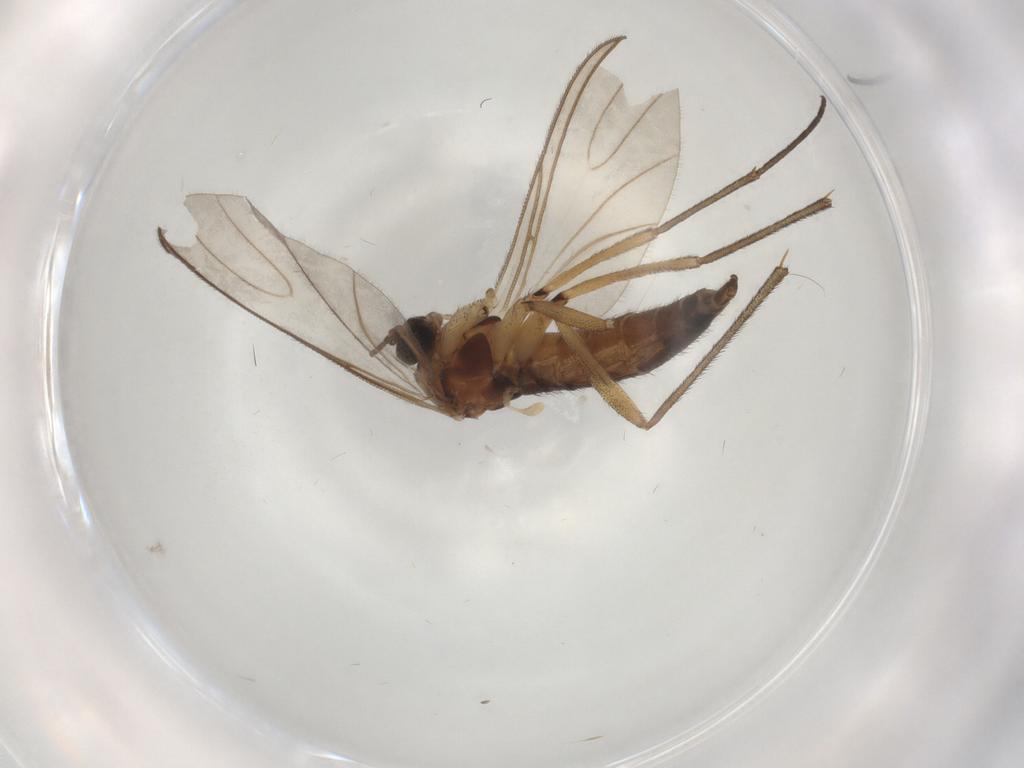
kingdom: Animalia
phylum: Arthropoda
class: Insecta
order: Diptera
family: Sciaridae
